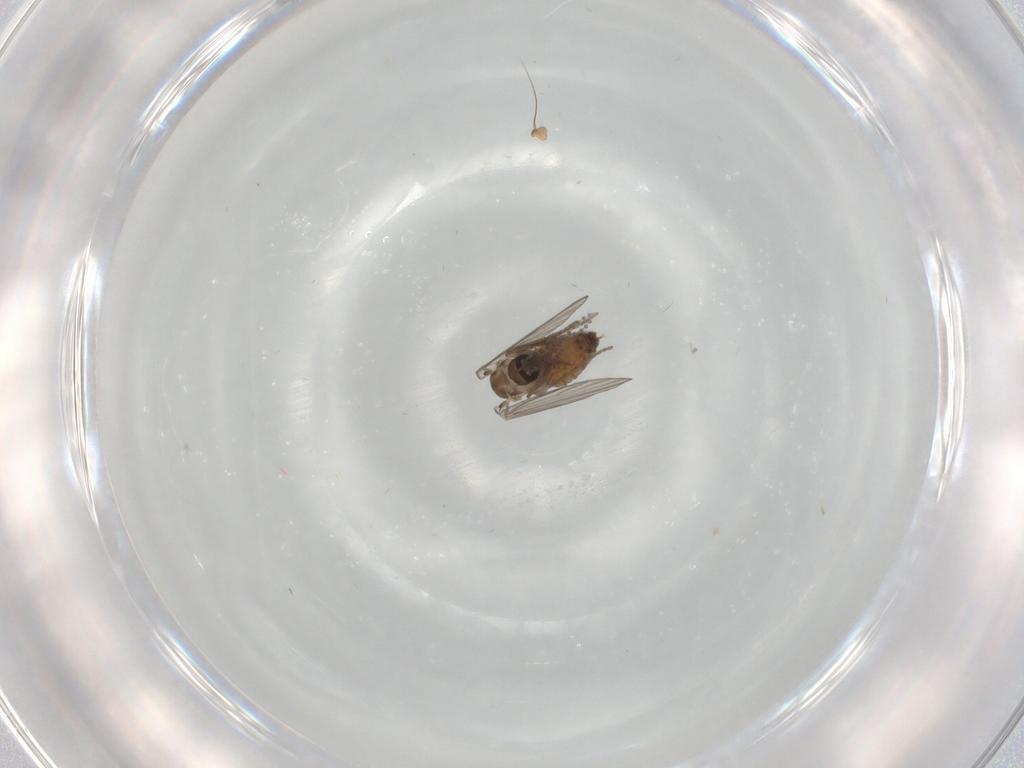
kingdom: Animalia
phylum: Arthropoda
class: Insecta
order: Diptera
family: Psychodidae
